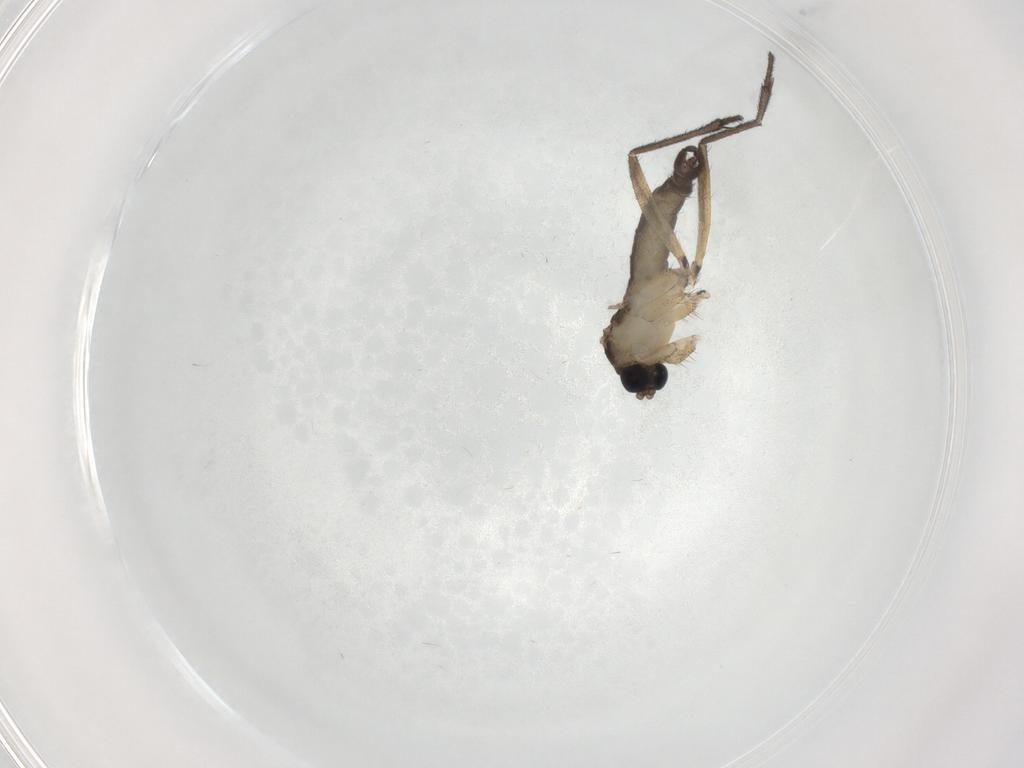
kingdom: Animalia
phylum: Arthropoda
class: Insecta
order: Diptera
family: Sciaridae
